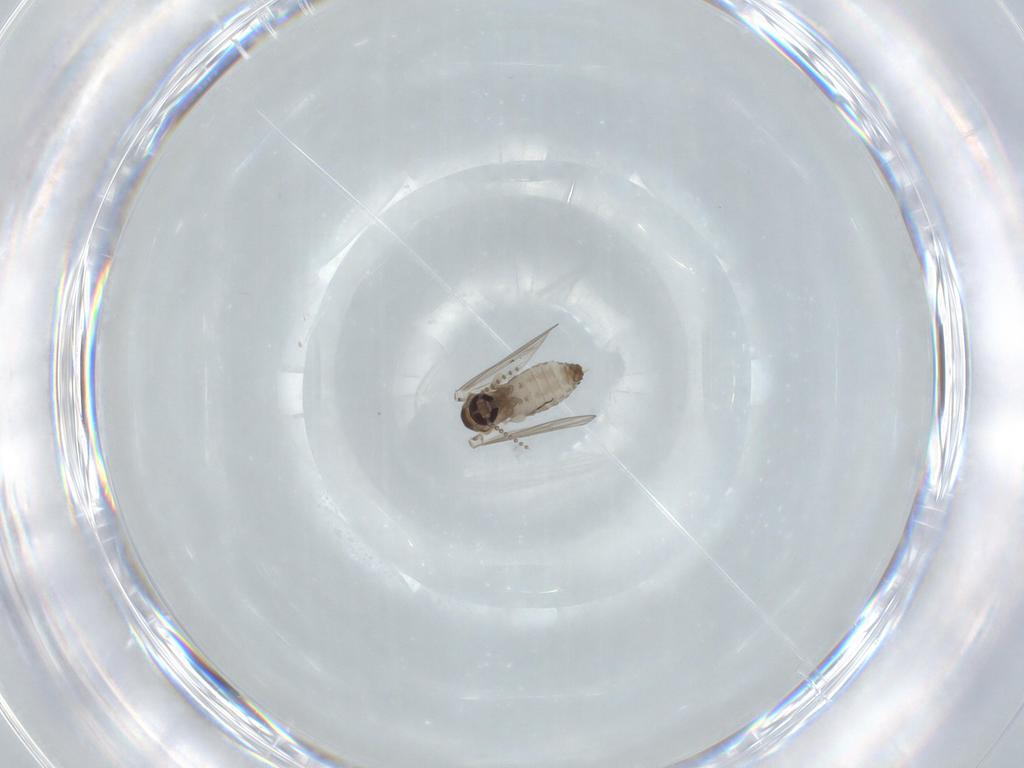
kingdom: Animalia
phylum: Arthropoda
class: Insecta
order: Diptera
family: Psychodidae
